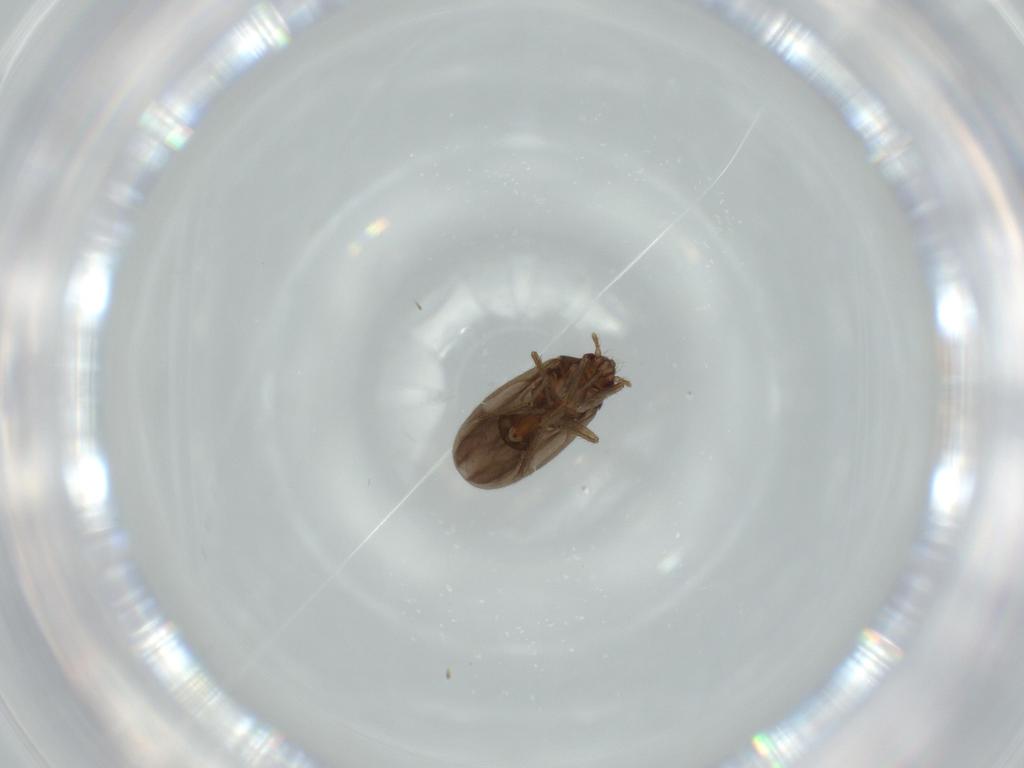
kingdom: Animalia
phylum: Arthropoda
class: Insecta
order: Hemiptera
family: Ceratocombidae
